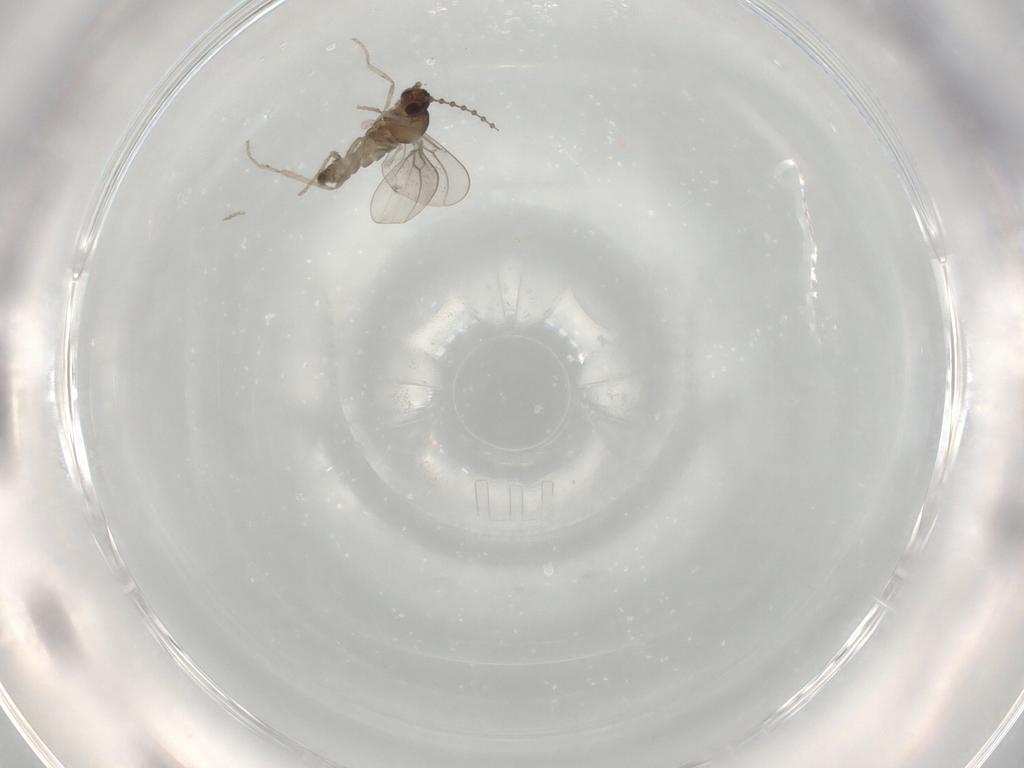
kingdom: Animalia
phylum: Arthropoda
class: Insecta
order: Diptera
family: Cecidomyiidae
